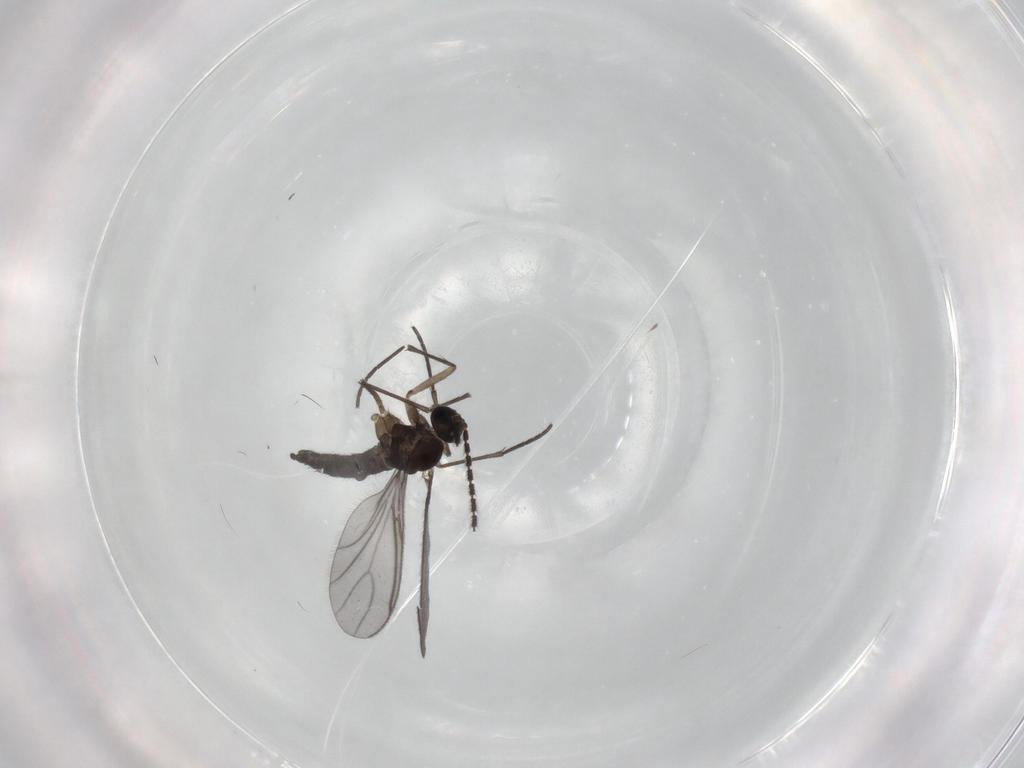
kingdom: Animalia
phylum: Arthropoda
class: Insecta
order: Diptera
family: Sciaridae
